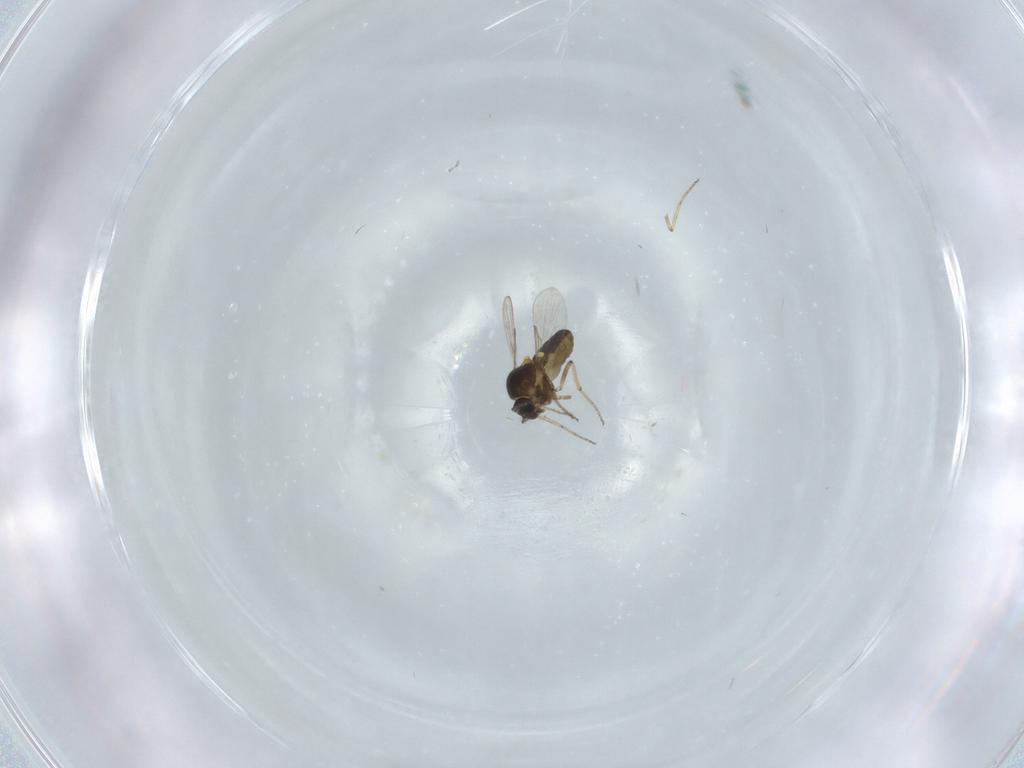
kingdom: Animalia
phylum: Arthropoda
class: Insecta
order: Diptera
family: Ceratopogonidae
